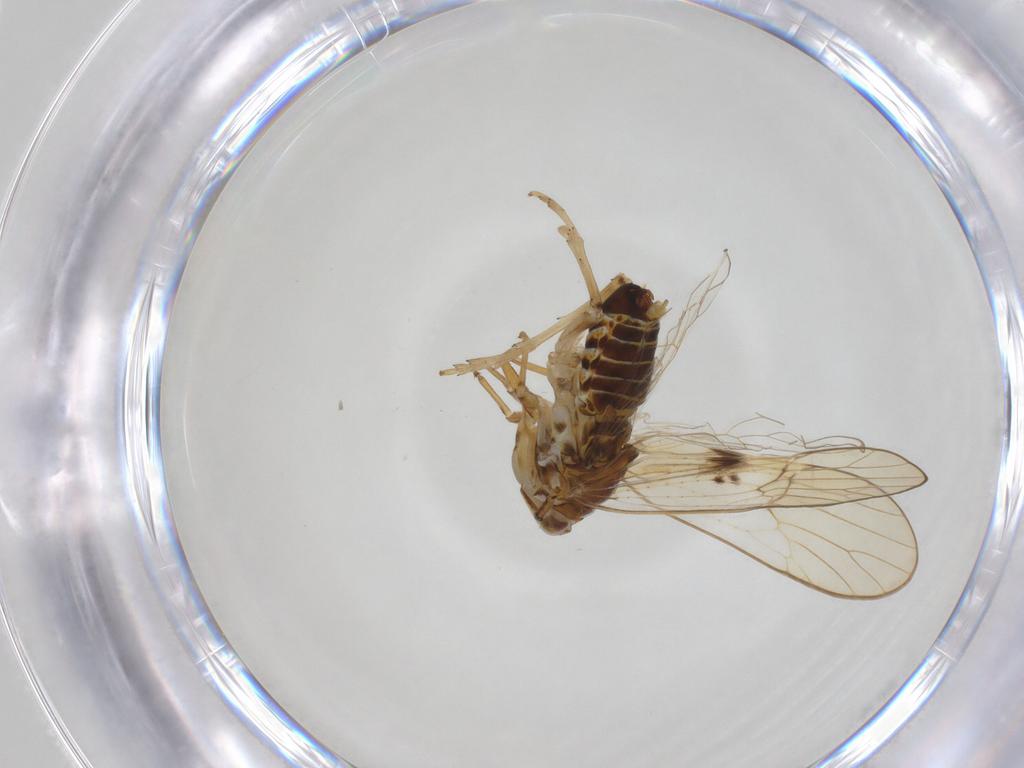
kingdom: Animalia
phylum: Arthropoda
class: Insecta
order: Hemiptera
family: Delphacidae
